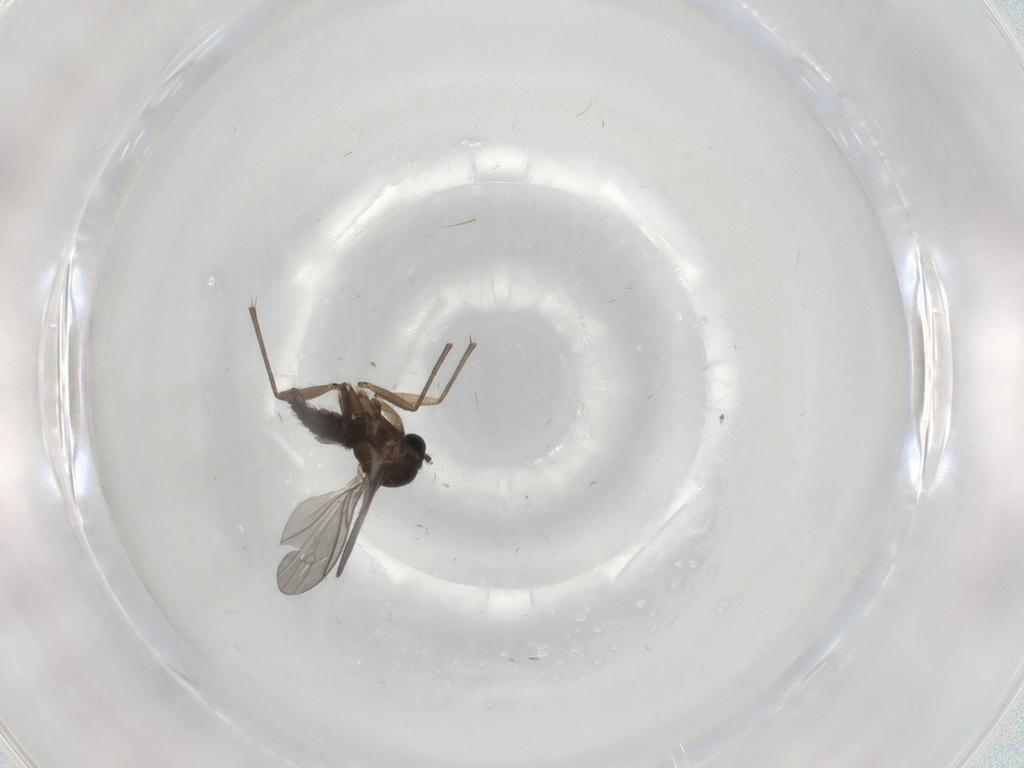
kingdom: Animalia
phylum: Arthropoda
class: Insecta
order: Diptera
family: Sciaridae
